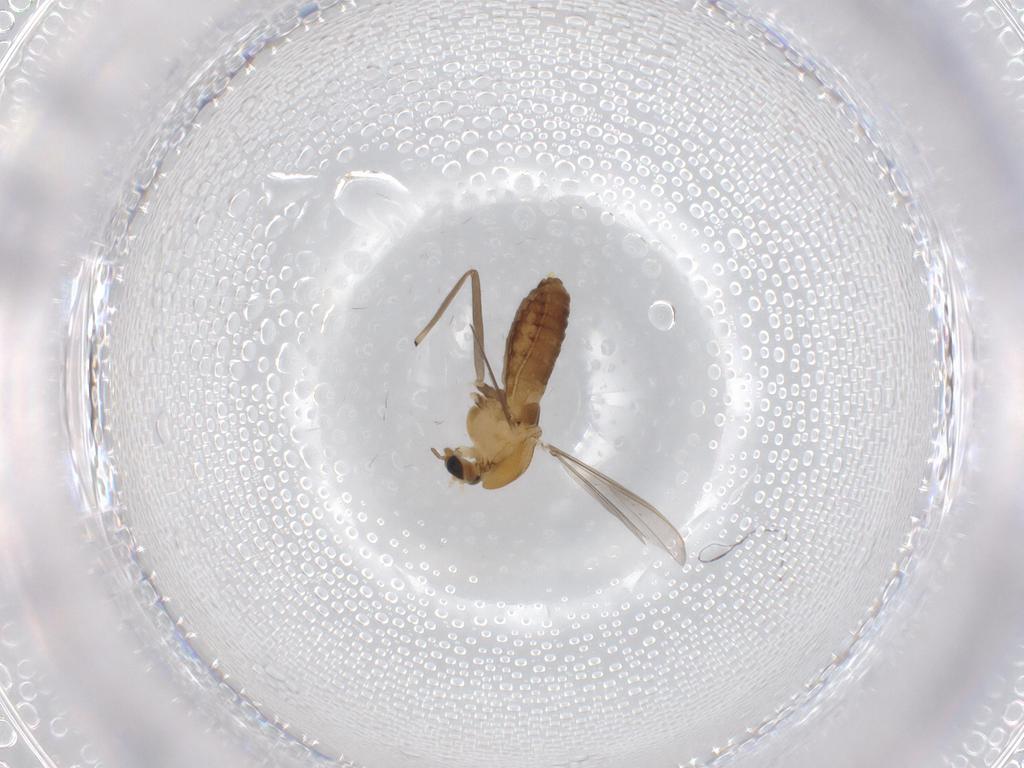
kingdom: Animalia
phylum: Arthropoda
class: Insecta
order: Diptera
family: Chironomidae
